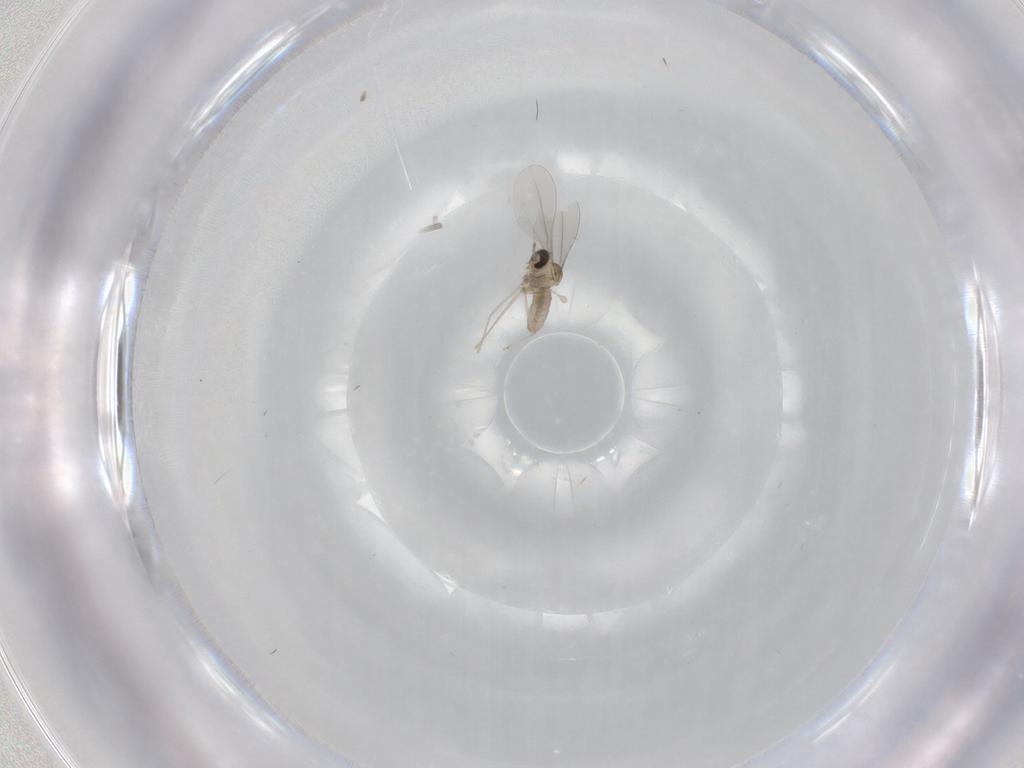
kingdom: Animalia
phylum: Arthropoda
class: Insecta
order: Diptera
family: Cecidomyiidae
